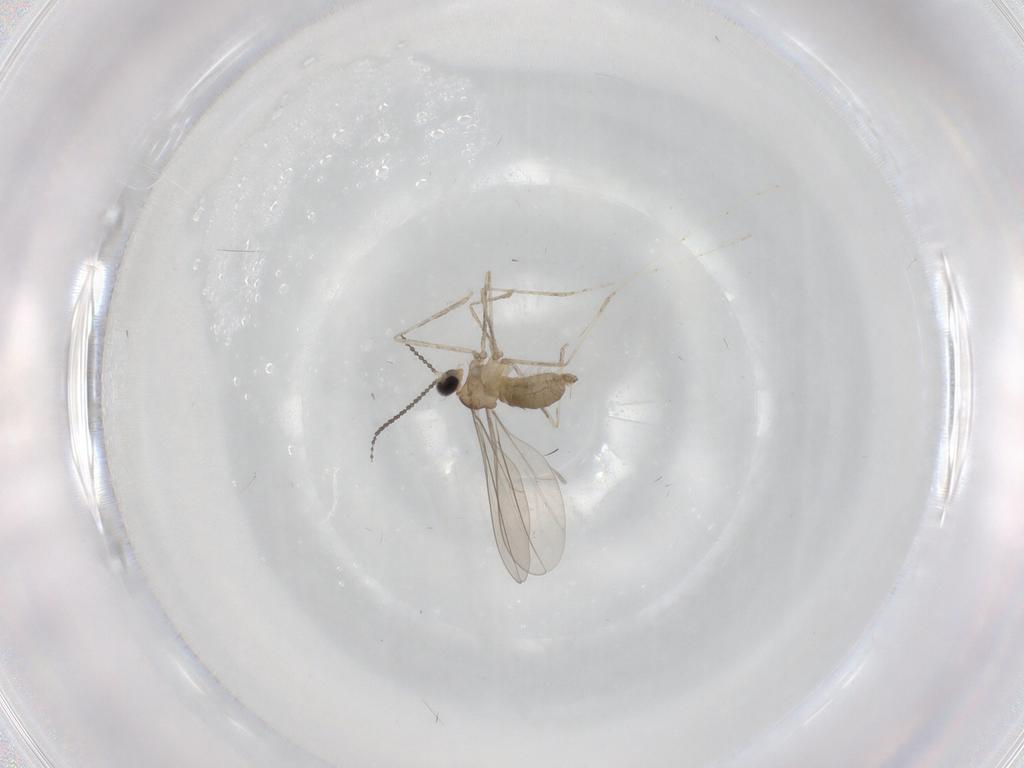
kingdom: Animalia
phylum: Arthropoda
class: Insecta
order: Diptera
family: Cecidomyiidae
